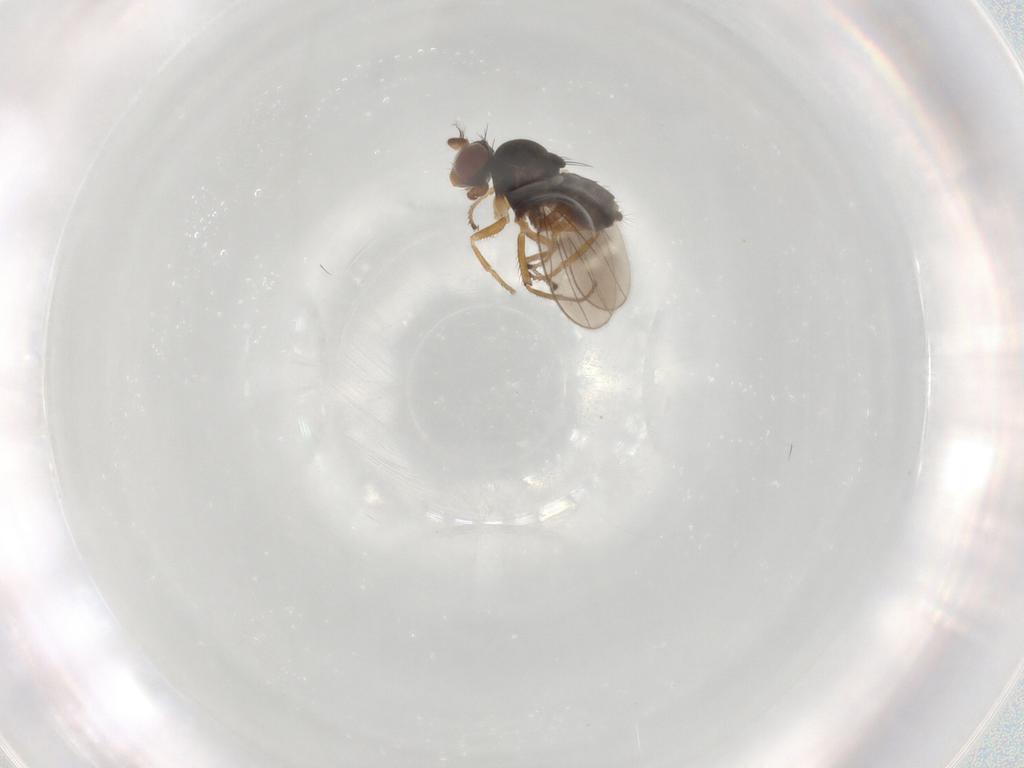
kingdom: Animalia
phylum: Arthropoda
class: Insecta
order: Diptera
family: Ephydridae
